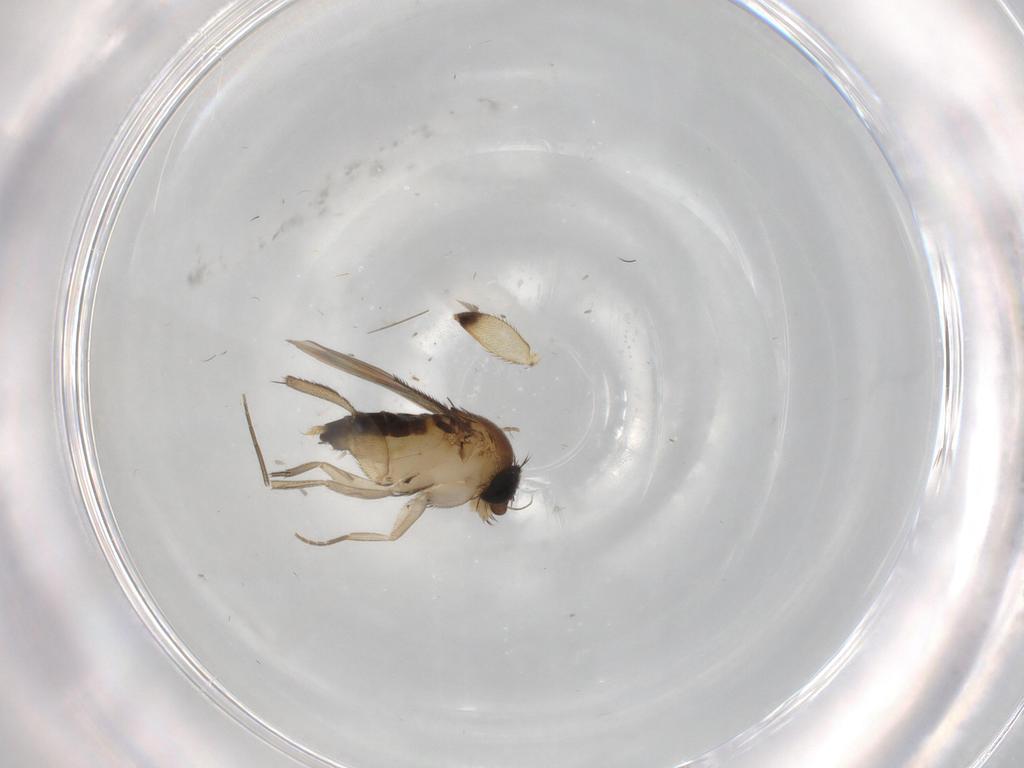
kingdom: Animalia
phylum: Arthropoda
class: Insecta
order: Diptera
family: Phoridae
